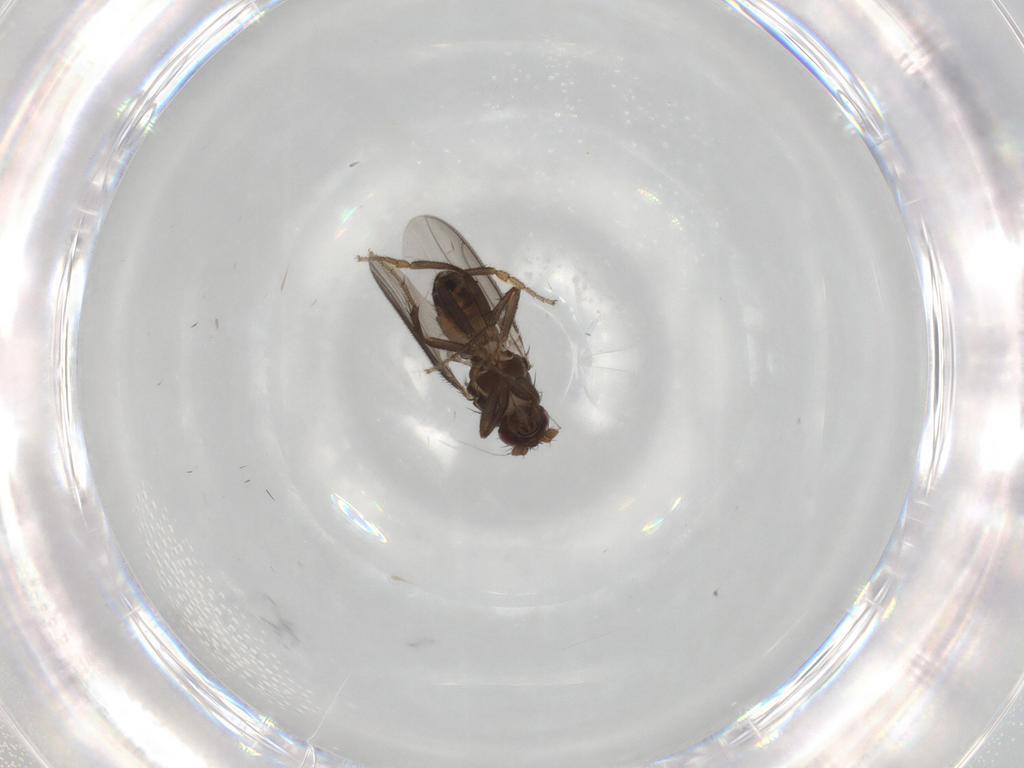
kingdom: Animalia
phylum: Arthropoda
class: Insecta
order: Diptera
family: Sphaeroceridae
